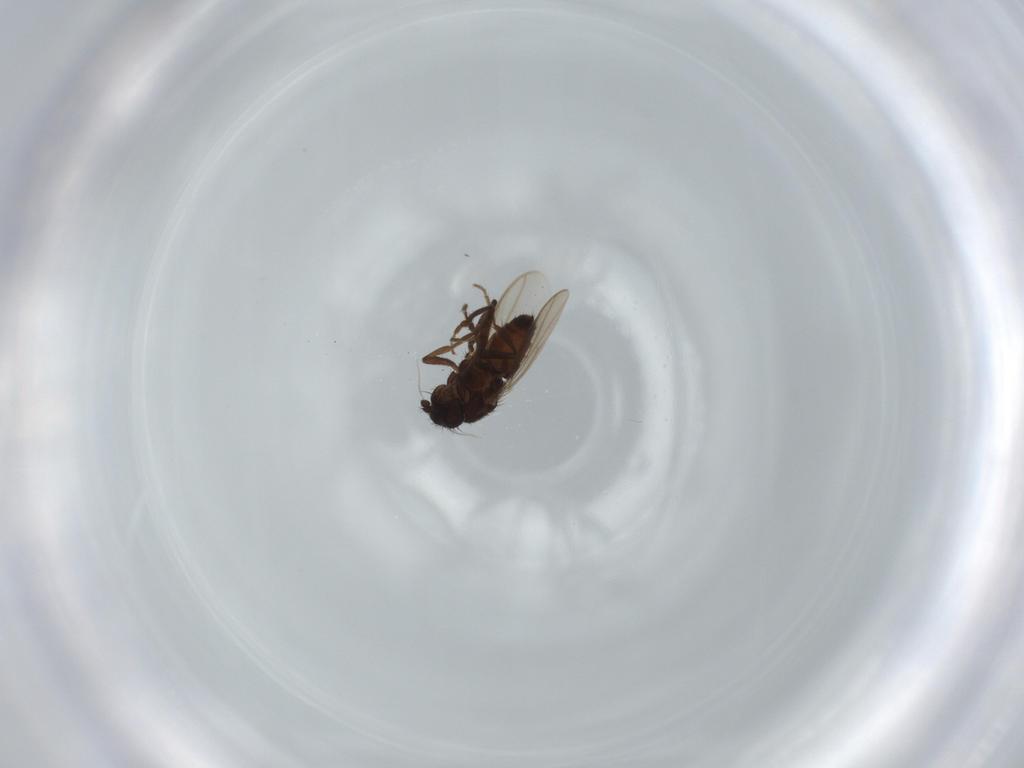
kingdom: Animalia
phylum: Arthropoda
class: Insecta
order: Diptera
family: Sphaeroceridae
